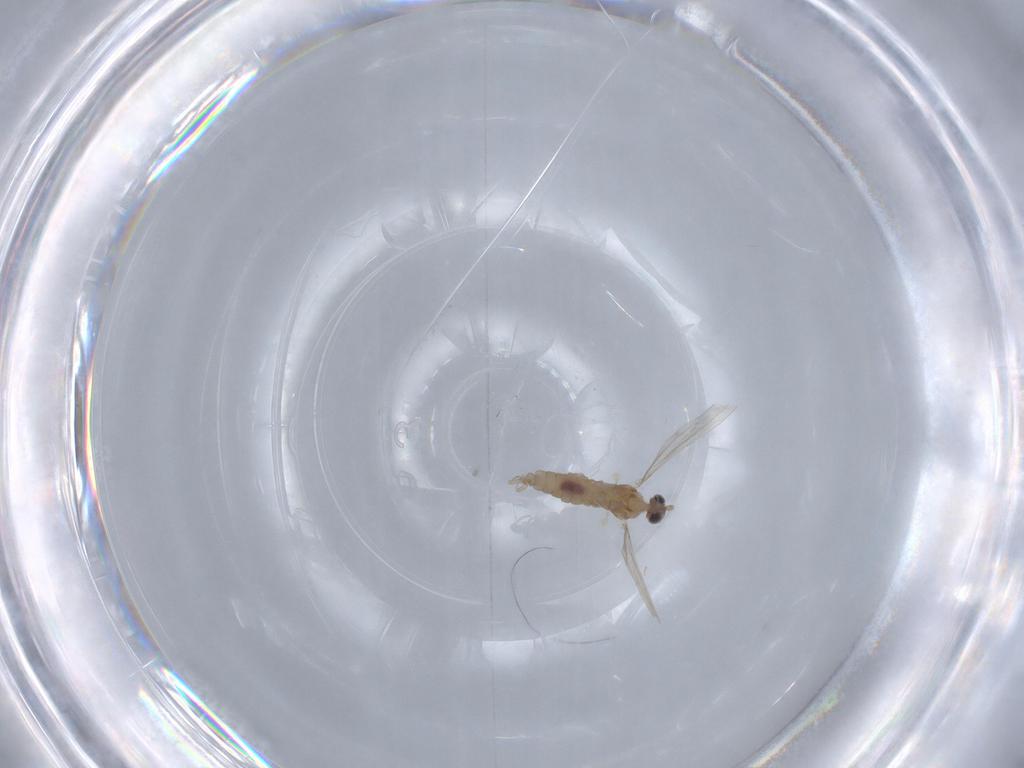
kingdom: Animalia
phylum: Arthropoda
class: Insecta
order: Diptera
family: Cecidomyiidae
